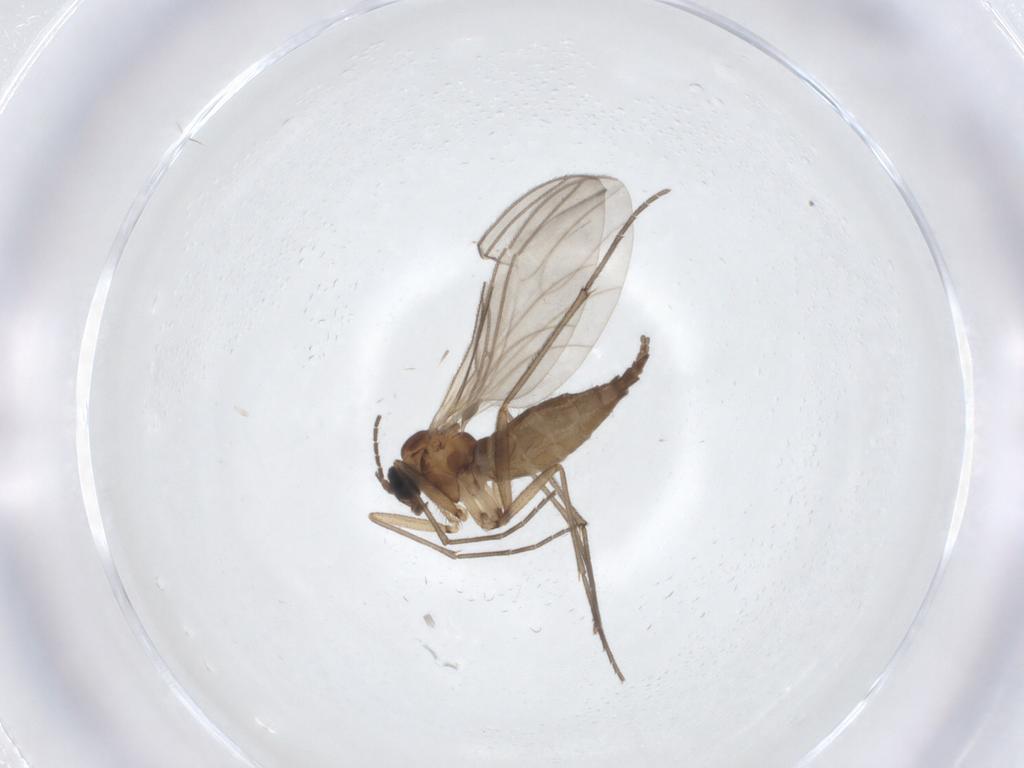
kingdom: Animalia
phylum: Arthropoda
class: Insecta
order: Diptera
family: Sciaridae
